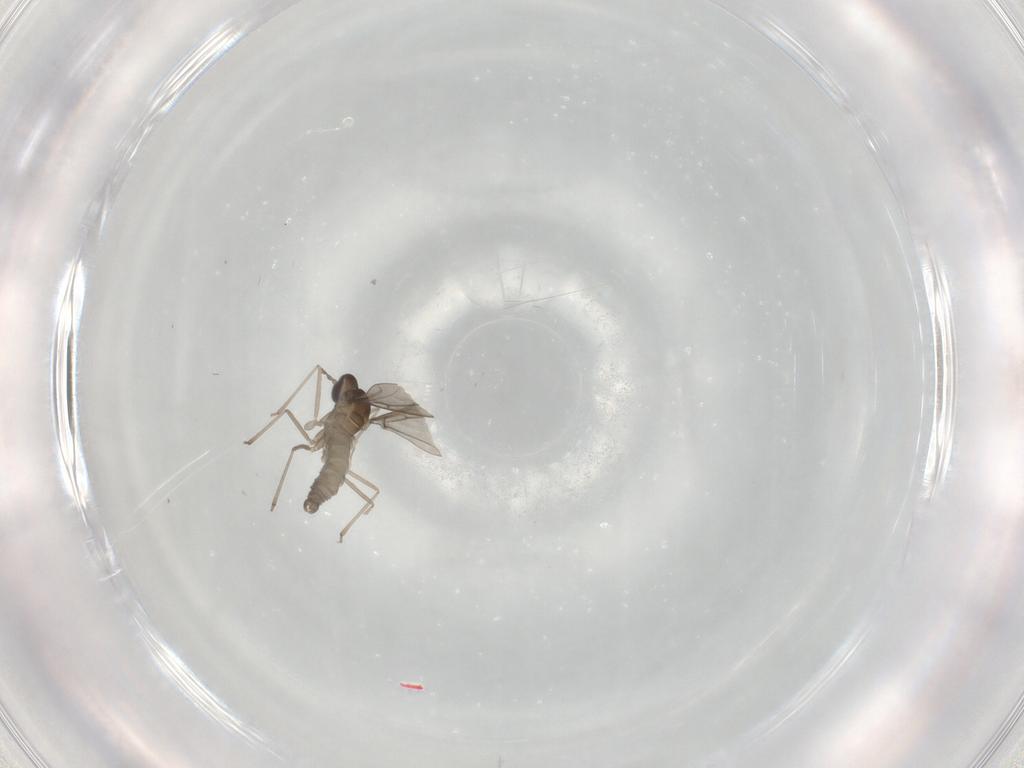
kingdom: Animalia
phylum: Arthropoda
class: Insecta
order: Diptera
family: Cecidomyiidae
